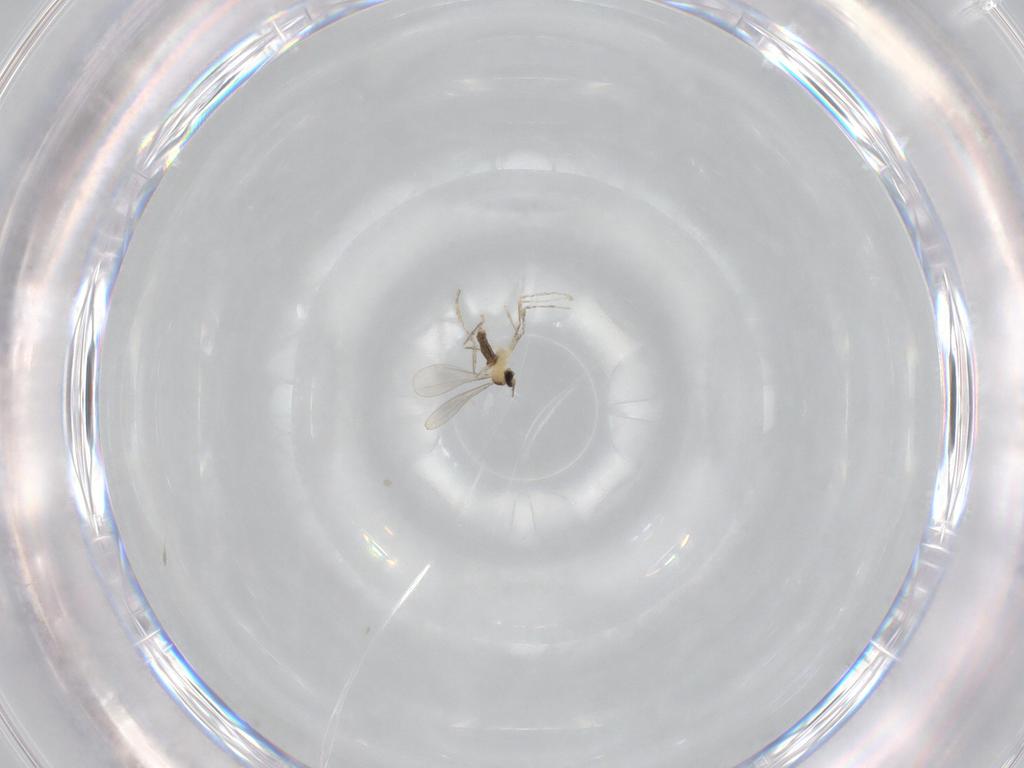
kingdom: Animalia
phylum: Arthropoda
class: Insecta
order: Diptera
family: Cecidomyiidae
